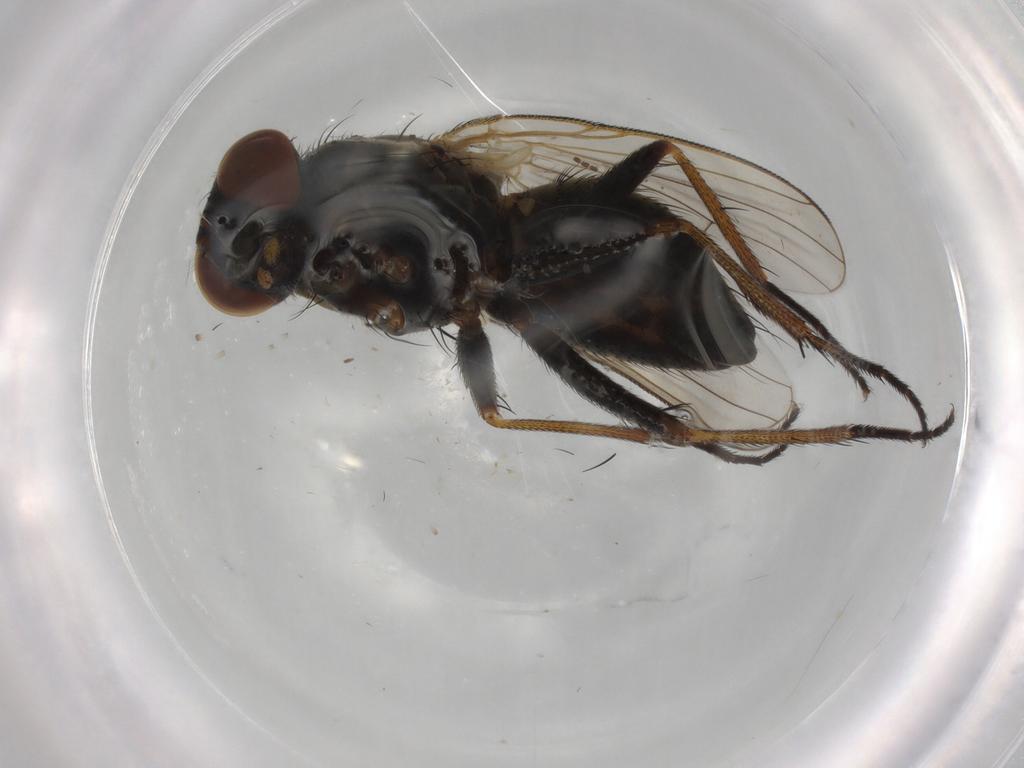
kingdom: Animalia
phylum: Arthropoda
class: Insecta
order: Diptera
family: Muscidae
